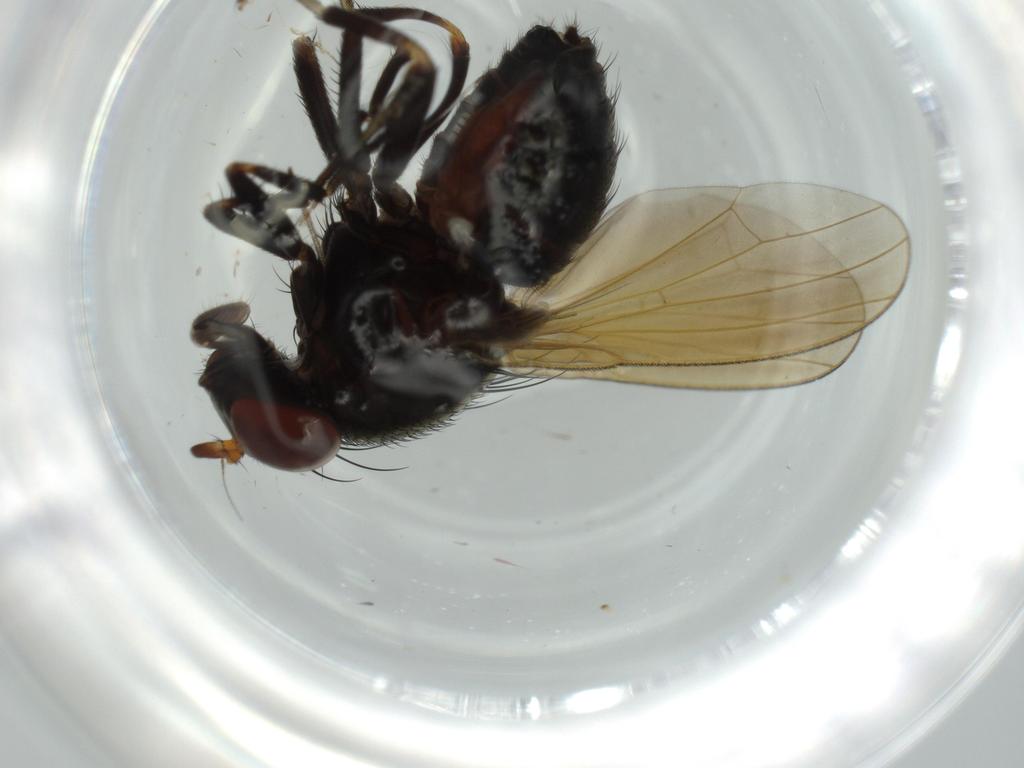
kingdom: Animalia
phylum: Arthropoda
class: Insecta
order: Diptera
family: Lauxaniidae
